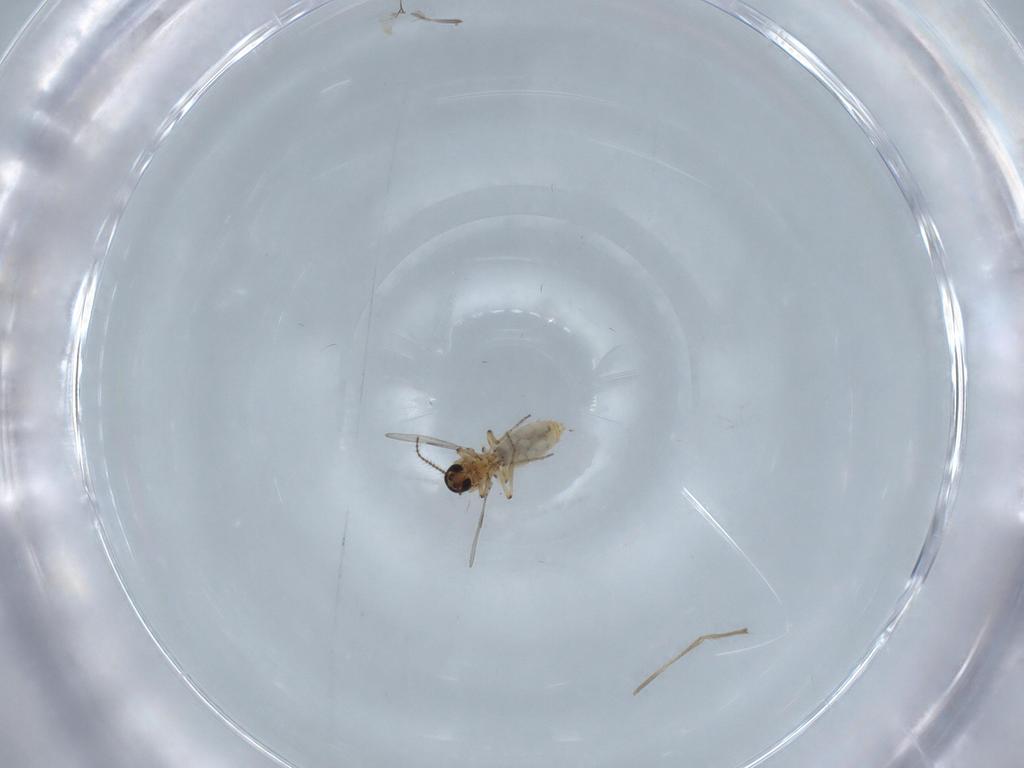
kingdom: Animalia
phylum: Arthropoda
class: Insecta
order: Diptera
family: Ceratopogonidae
